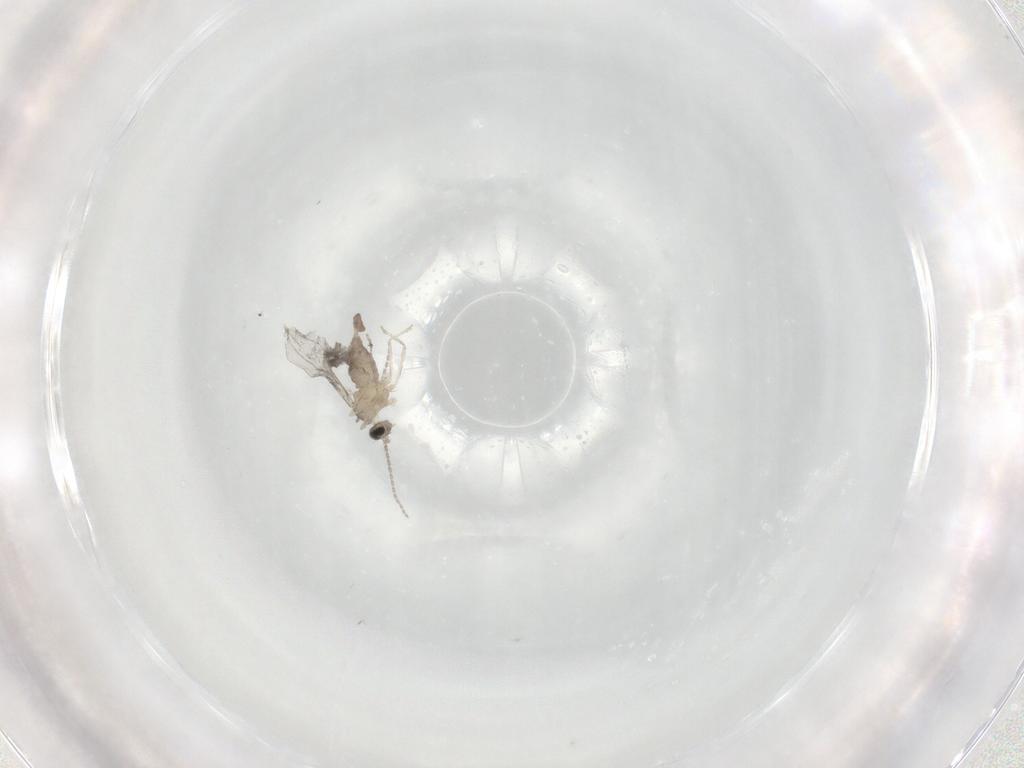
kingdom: Animalia
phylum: Arthropoda
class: Insecta
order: Diptera
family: Cecidomyiidae
